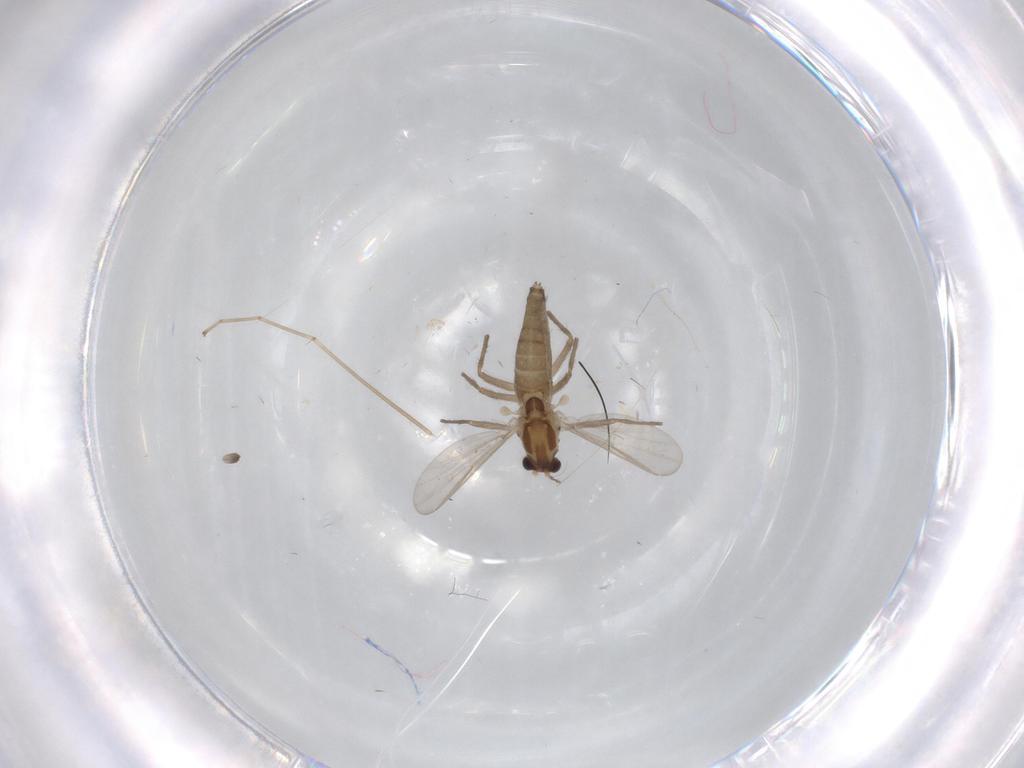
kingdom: Animalia
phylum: Arthropoda
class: Insecta
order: Diptera
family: Chironomidae
